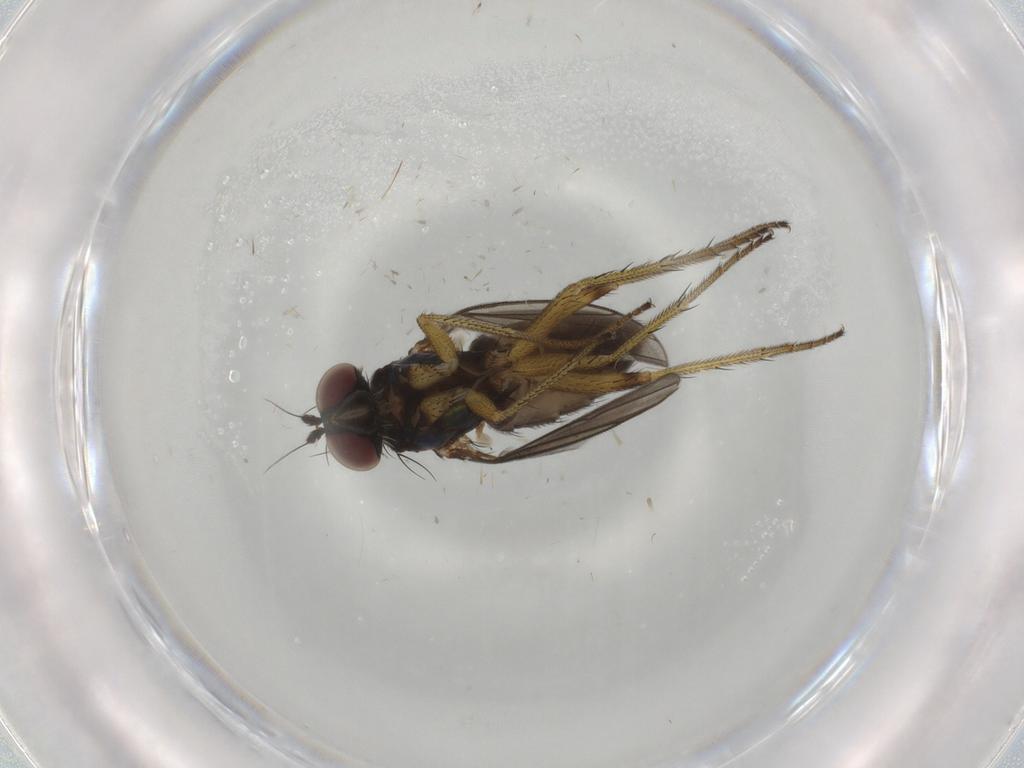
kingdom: Animalia
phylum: Arthropoda
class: Insecta
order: Diptera
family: Dolichopodidae
